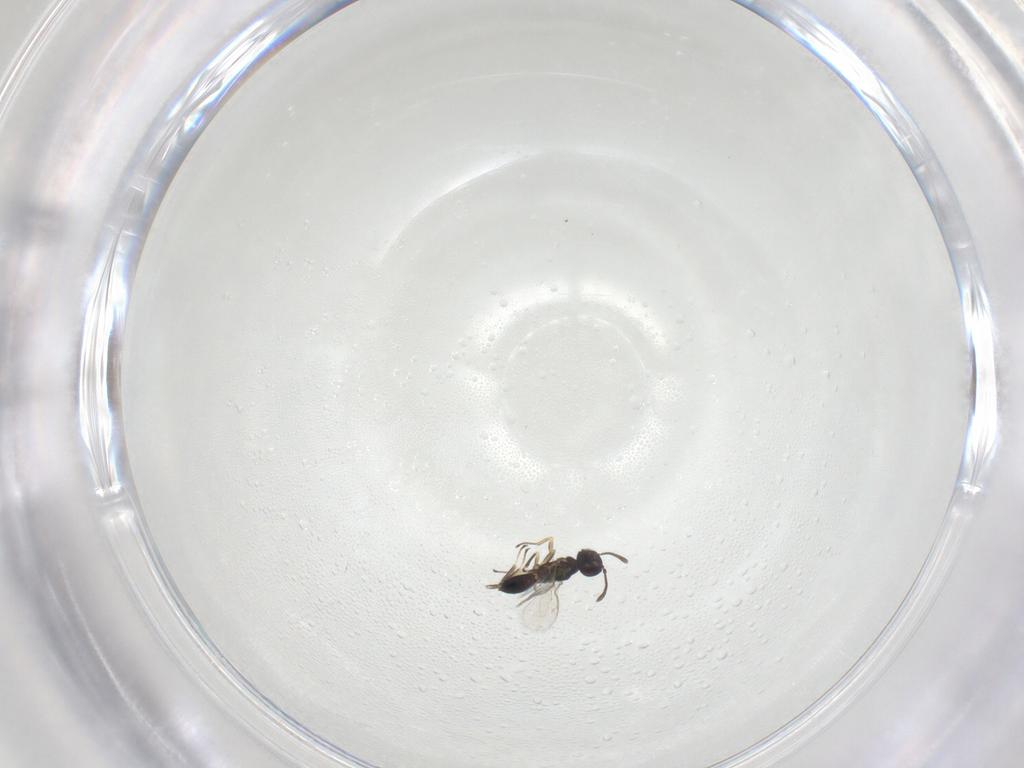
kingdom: Animalia
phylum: Arthropoda
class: Insecta
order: Hymenoptera
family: Eupelmidae
